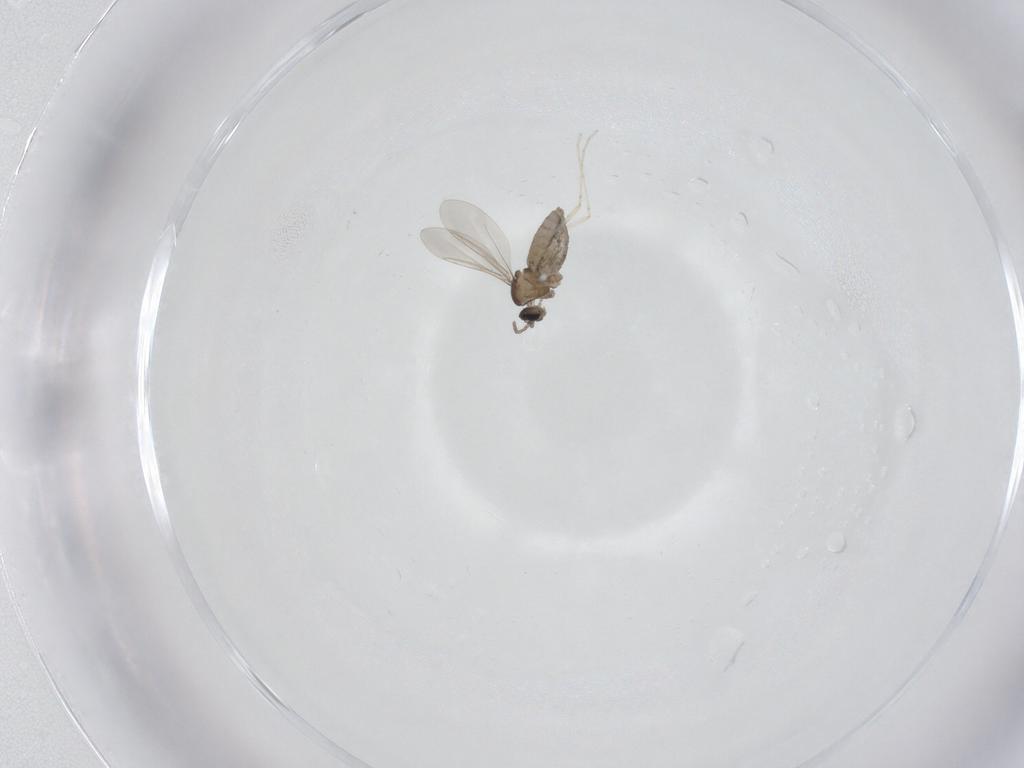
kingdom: Animalia
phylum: Arthropoda
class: Insecta
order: Diptera
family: Cecidomyiidae
